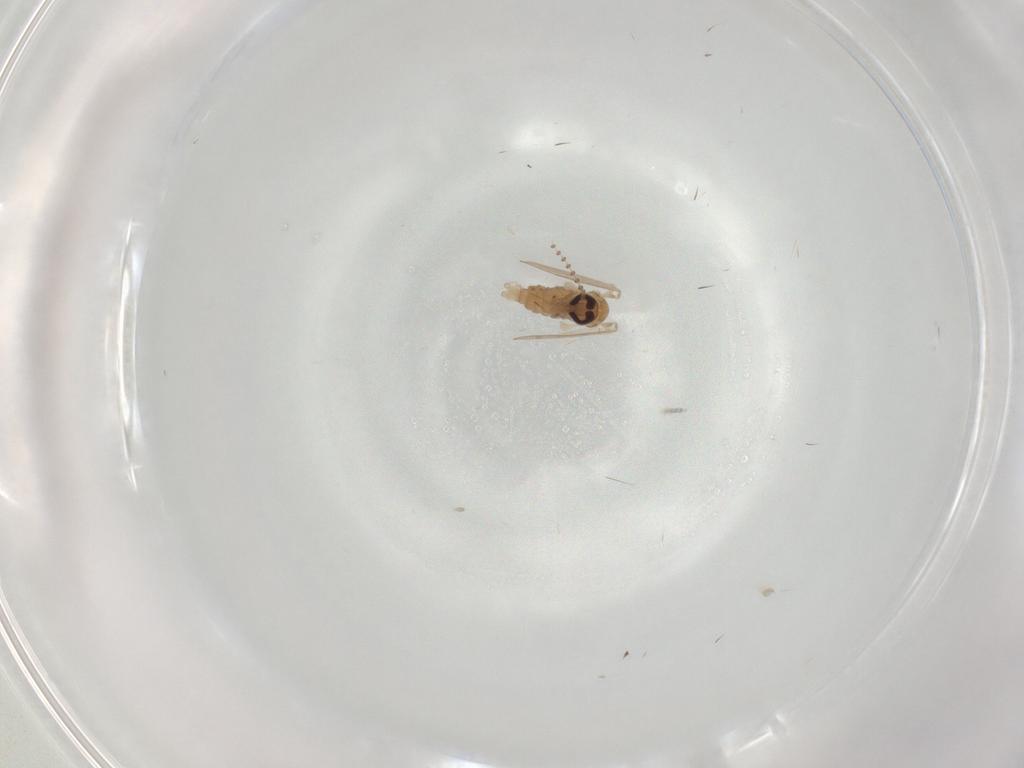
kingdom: Animalia
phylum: Arthropoda
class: Insecta
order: Diptera
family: Psychodidae
